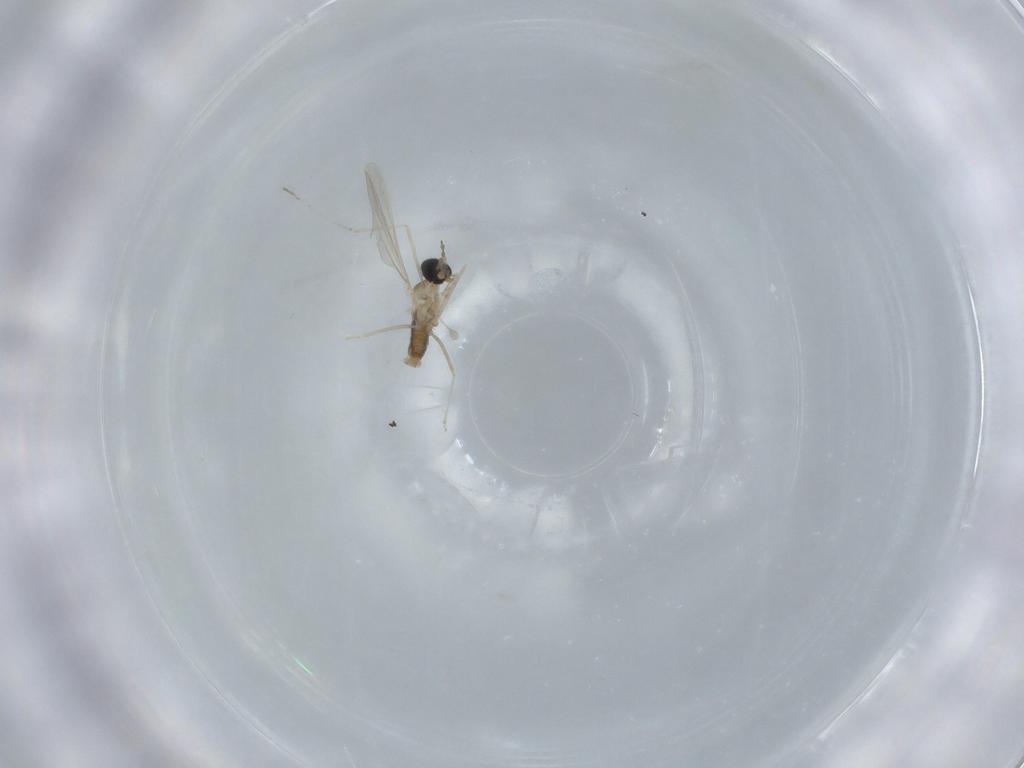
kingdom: Animalia
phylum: Arthropoda
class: Insecta
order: Diptera
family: Cecidomyiidae
